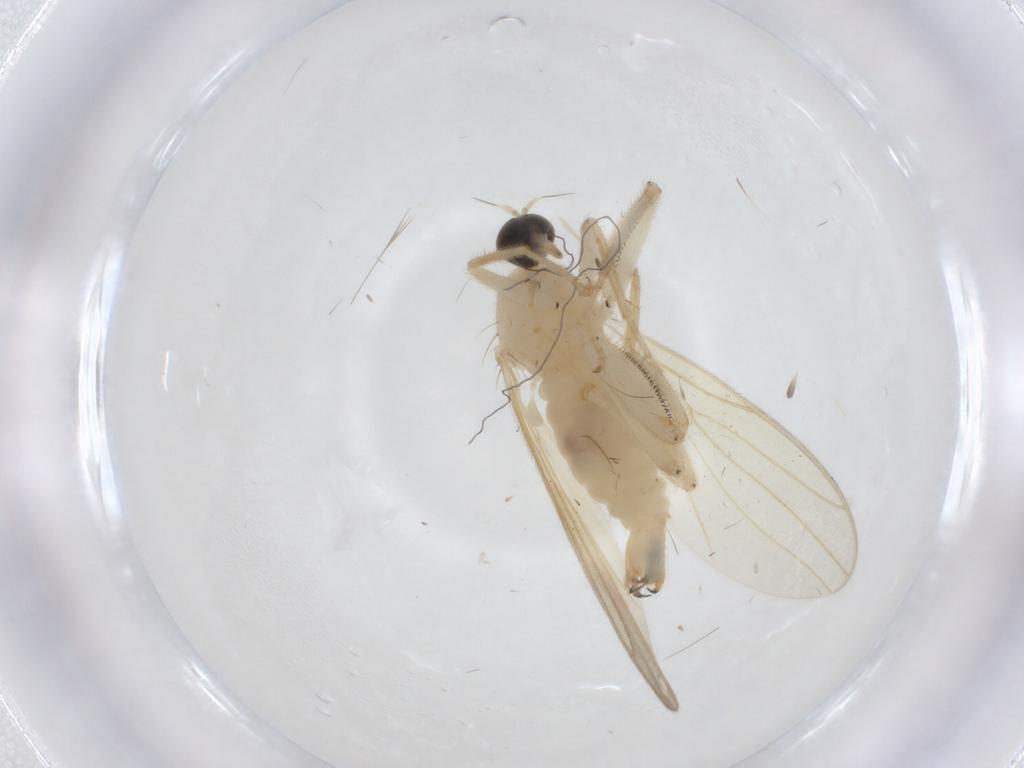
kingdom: Animalia
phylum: Arthropoda
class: Insecta
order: Diptera
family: Hybotidae
